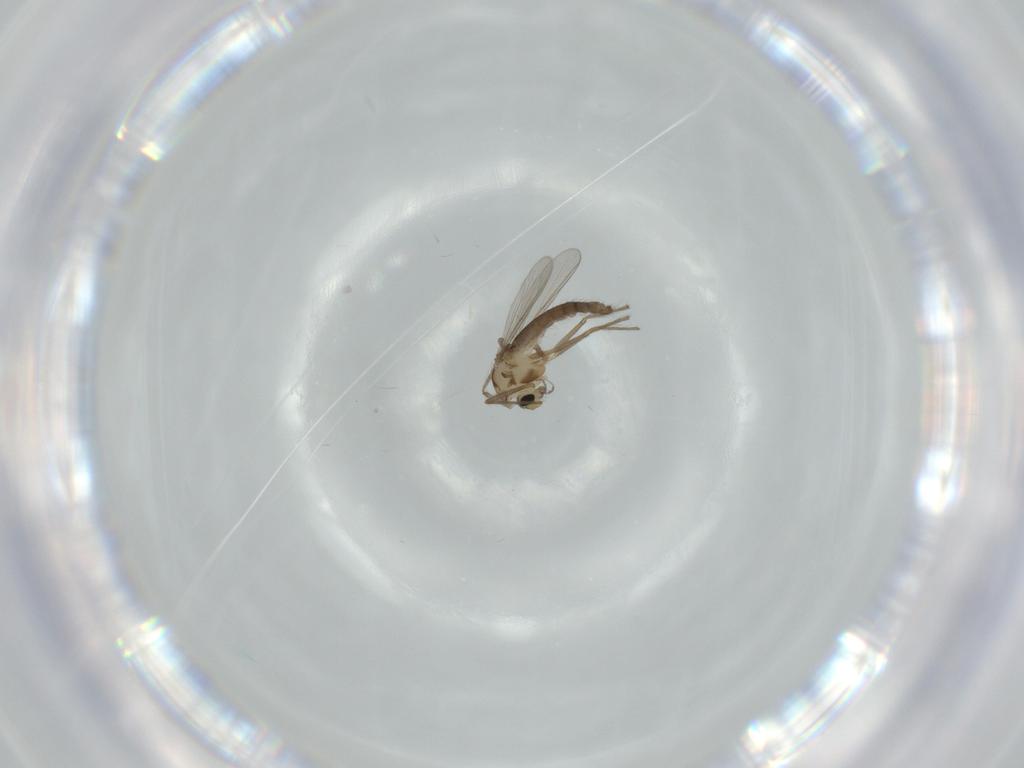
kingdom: Animalia
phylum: Arthropoda
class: Insecta
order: Diptera
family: Chironomidae
